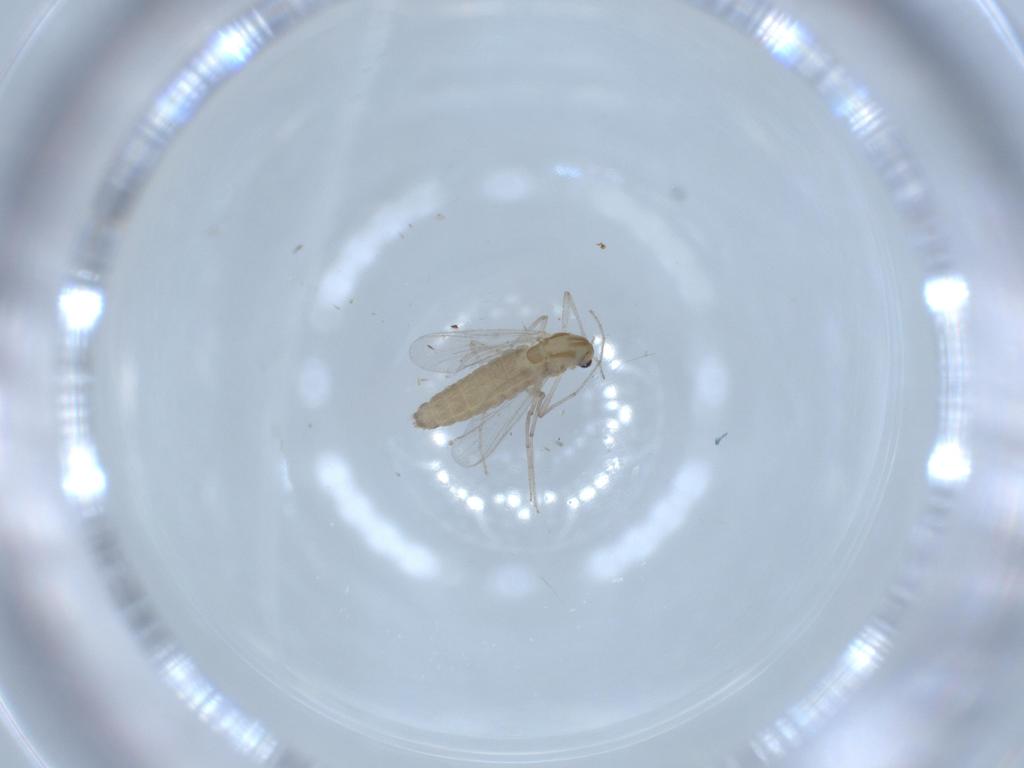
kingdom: Animalia
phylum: Arthropoda
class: Insecta
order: Diptera
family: Chironomidae
